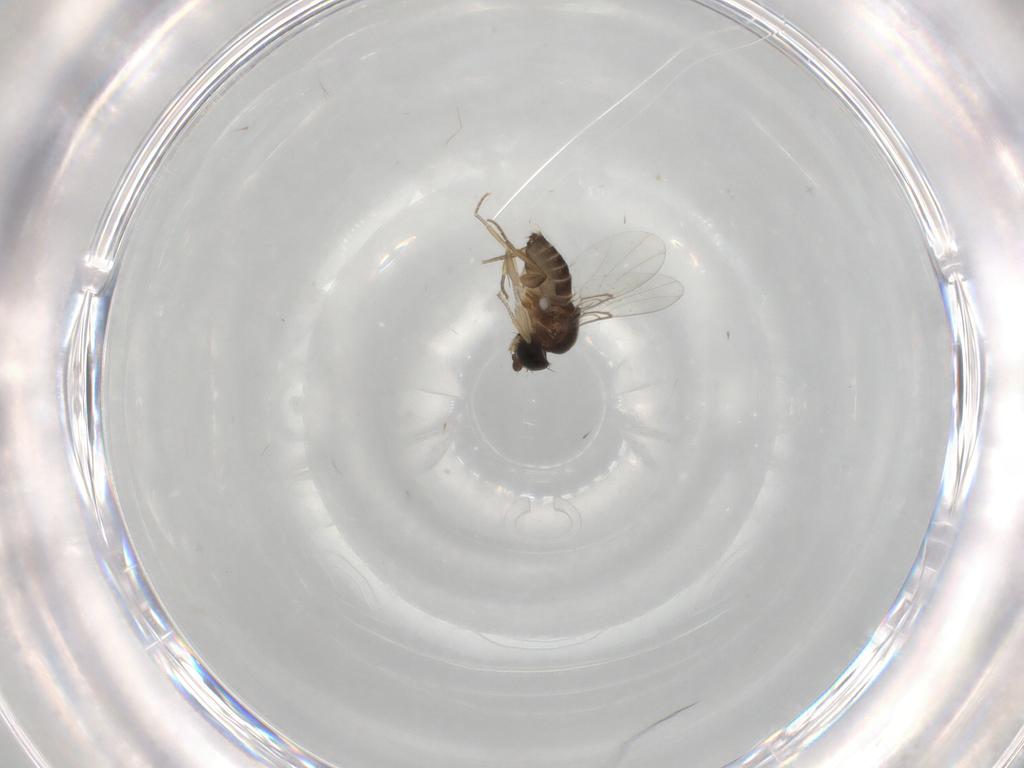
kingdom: Animalia
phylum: Arthropoda
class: Insecta
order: Diptera
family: Phoridae
